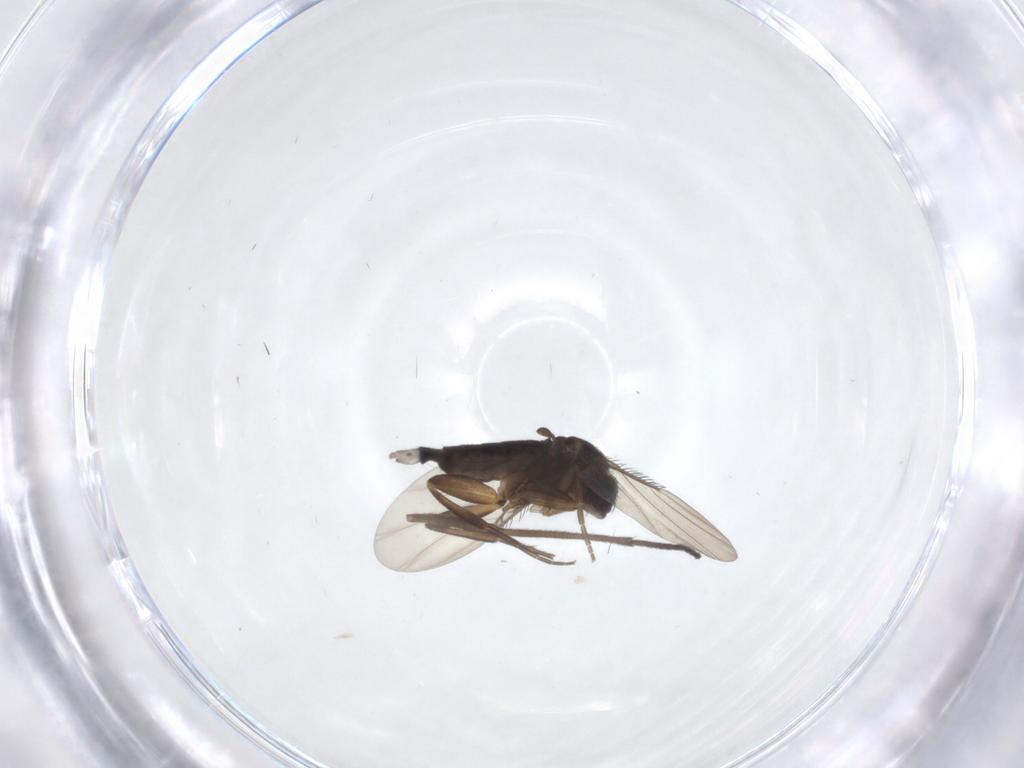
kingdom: Animalia
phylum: Arthropoda
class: Insecta
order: Diptera
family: Phoridae
